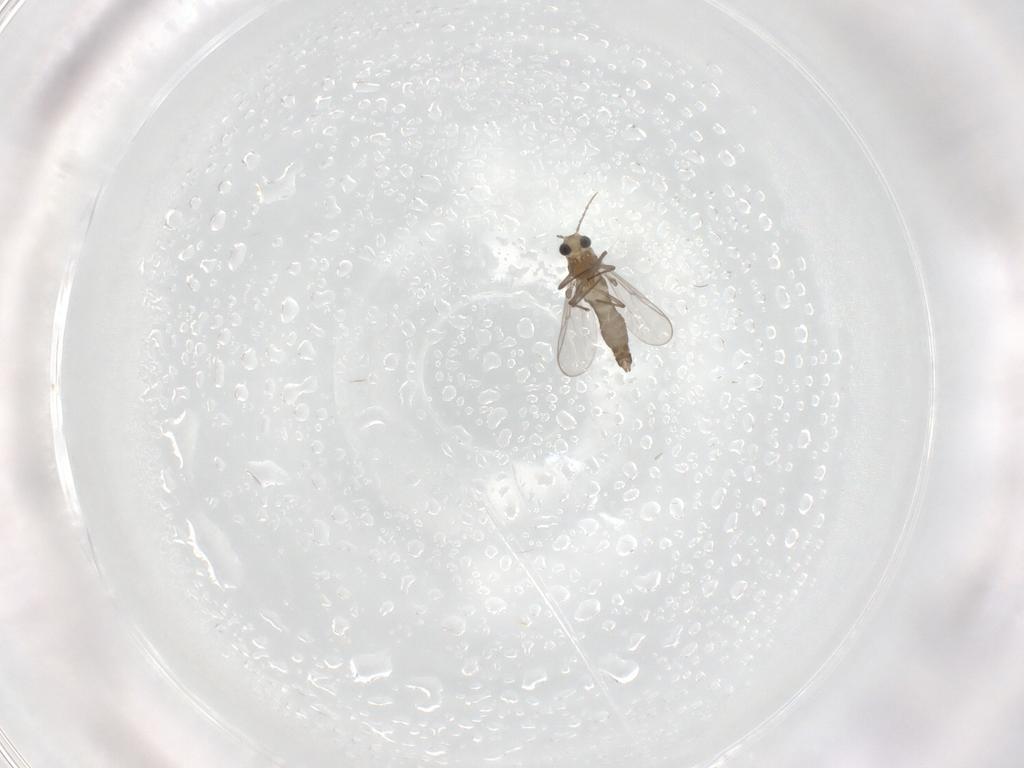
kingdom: Animalia
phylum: Arthropoda
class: Insecta
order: Diptera
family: Chironomidae
